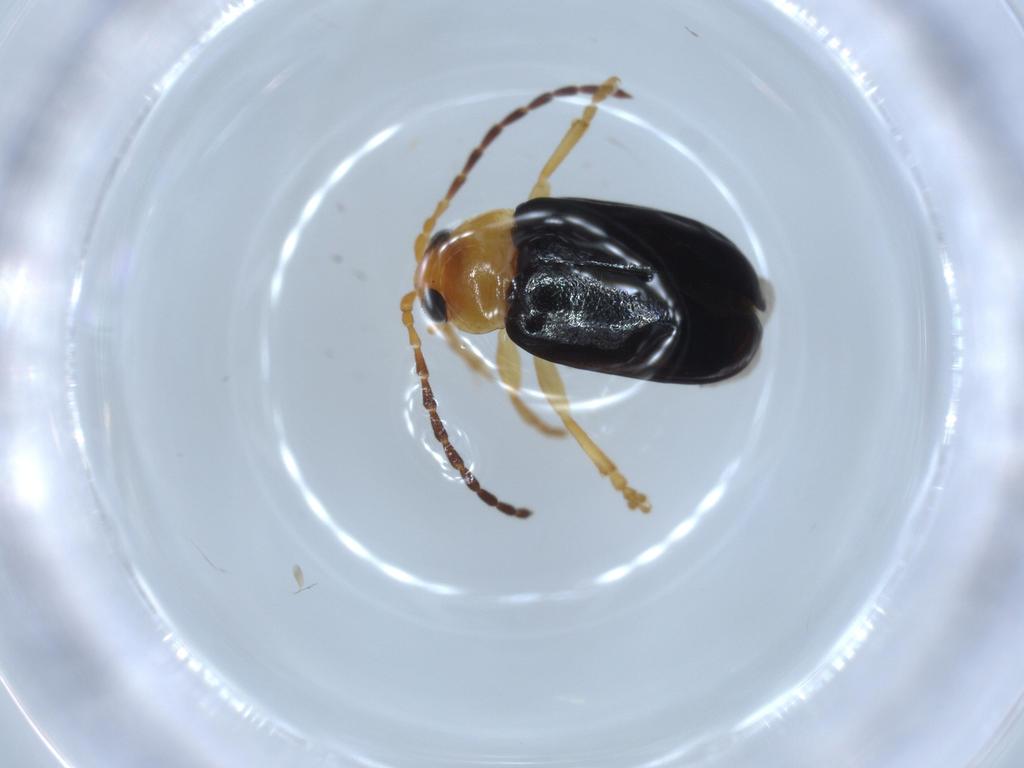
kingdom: Animalia
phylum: Arthropoda
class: Insecta
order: Coleoptera
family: Chrysomelidae
